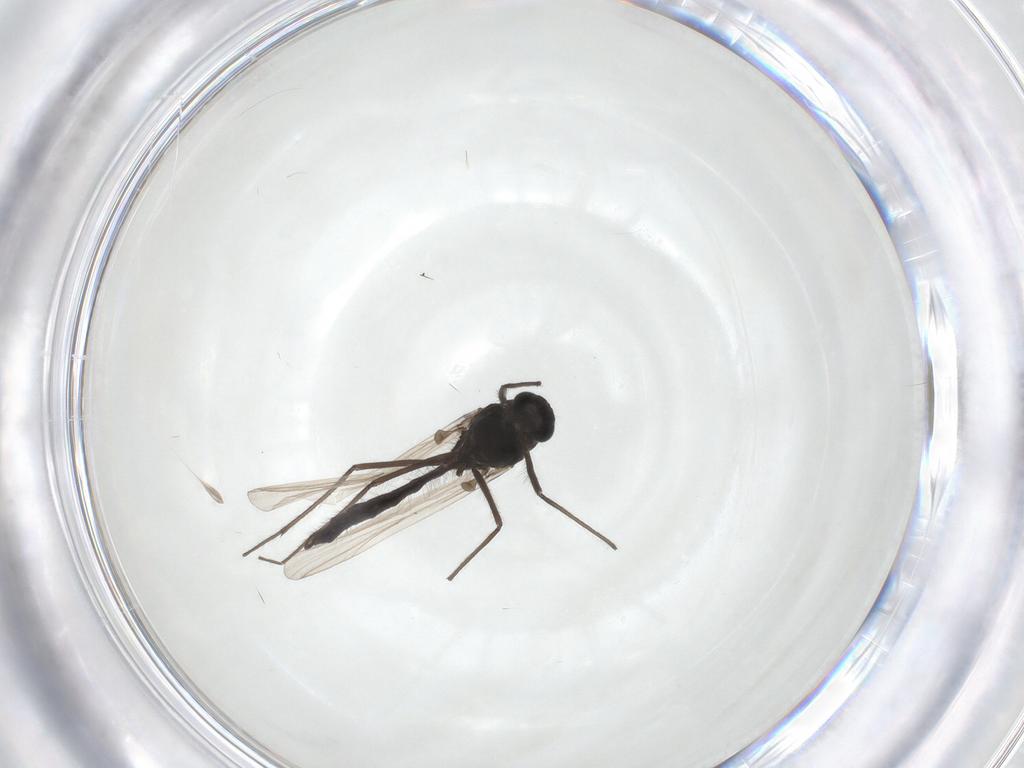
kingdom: Animalia
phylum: Arthropoda
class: Insecta
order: Diptera
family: Chironomidae
